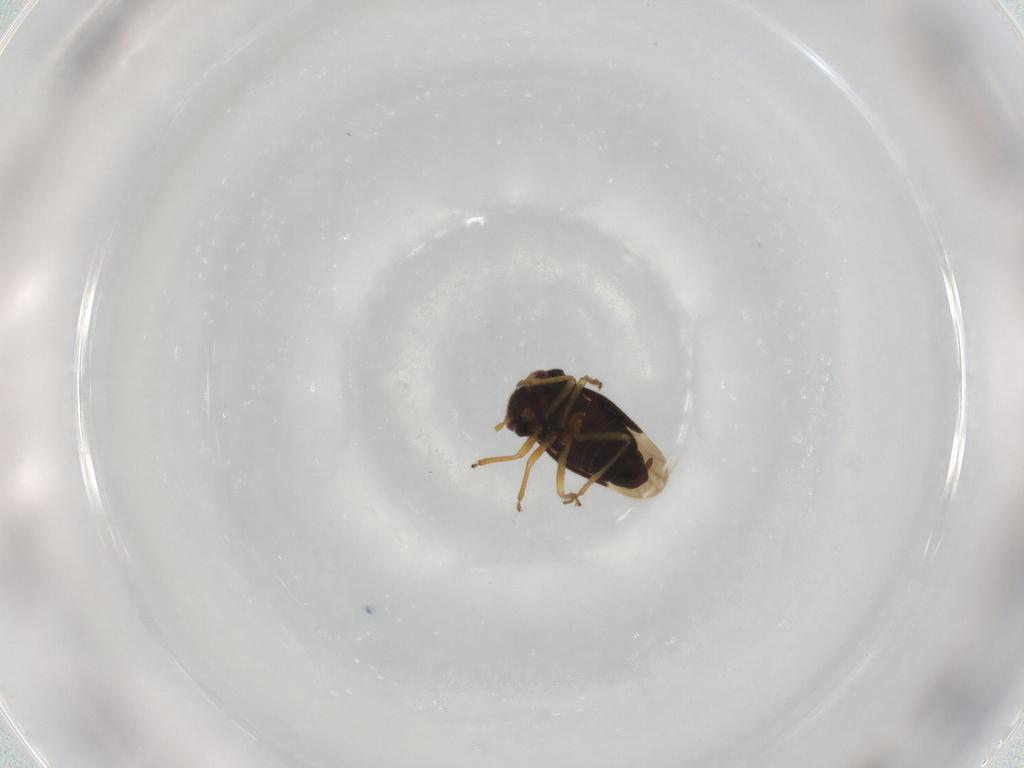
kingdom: Animalia
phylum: Arthropoda
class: Insecta
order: Hemiptera
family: Schizopteridae
